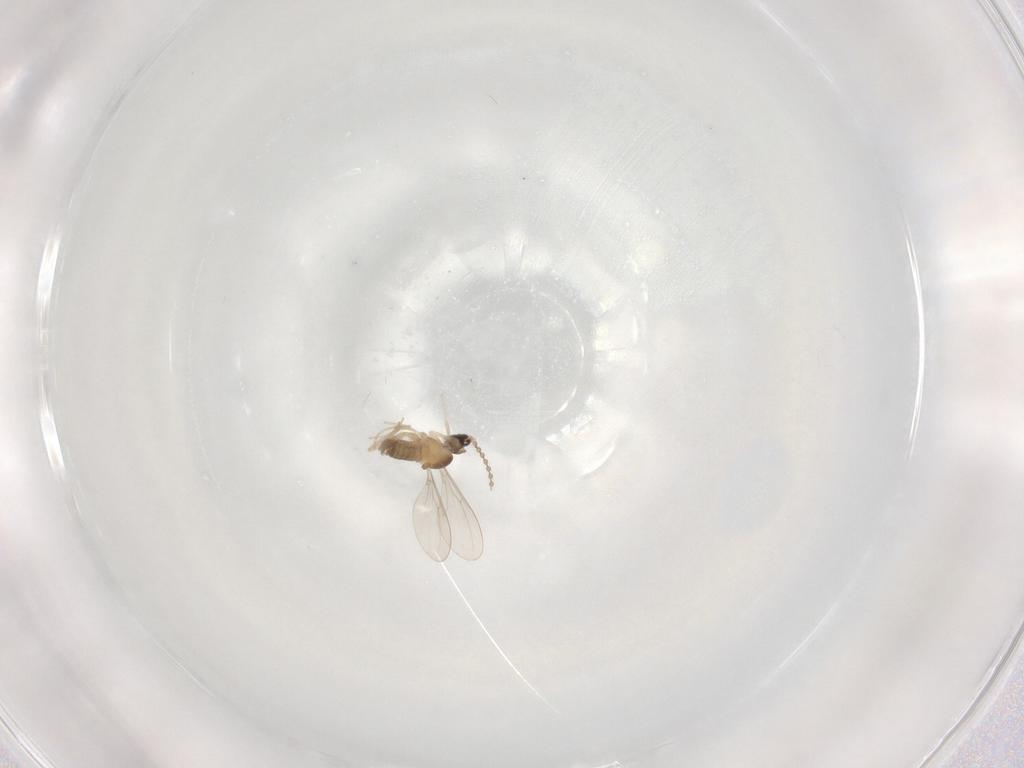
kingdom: Animalia
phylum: Arthropoda
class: Insecta
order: Diptera
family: Cecidomyiidae
